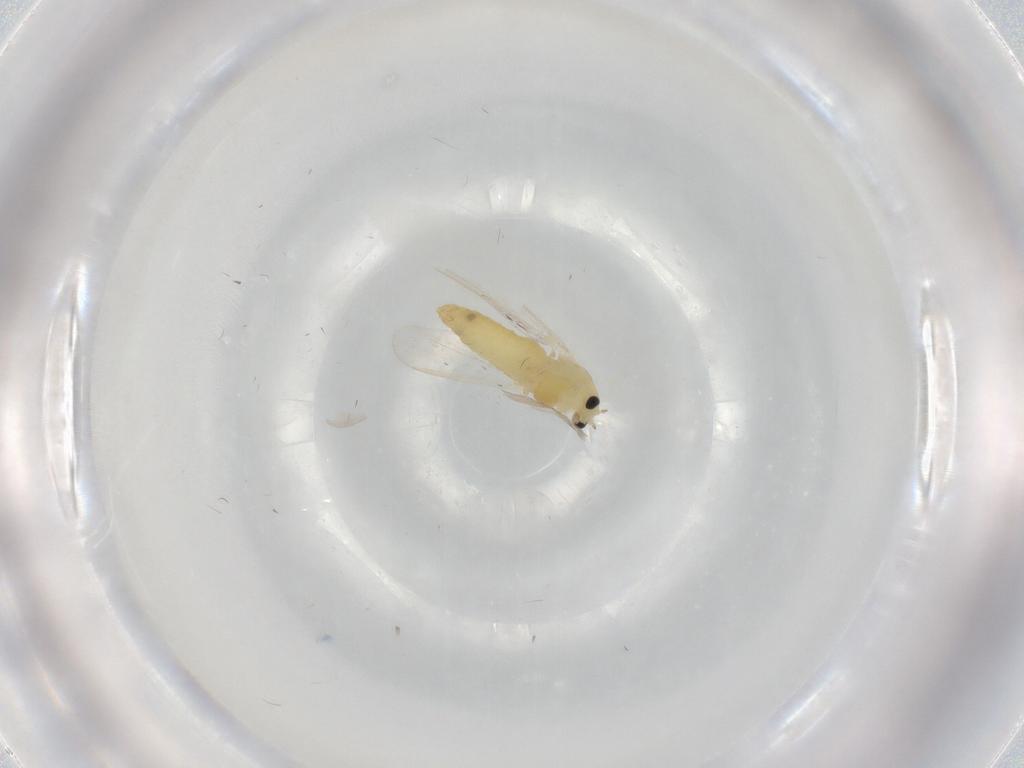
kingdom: Animalia
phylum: Arthropoda
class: Insecta
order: Diptera
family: Chironomidae
